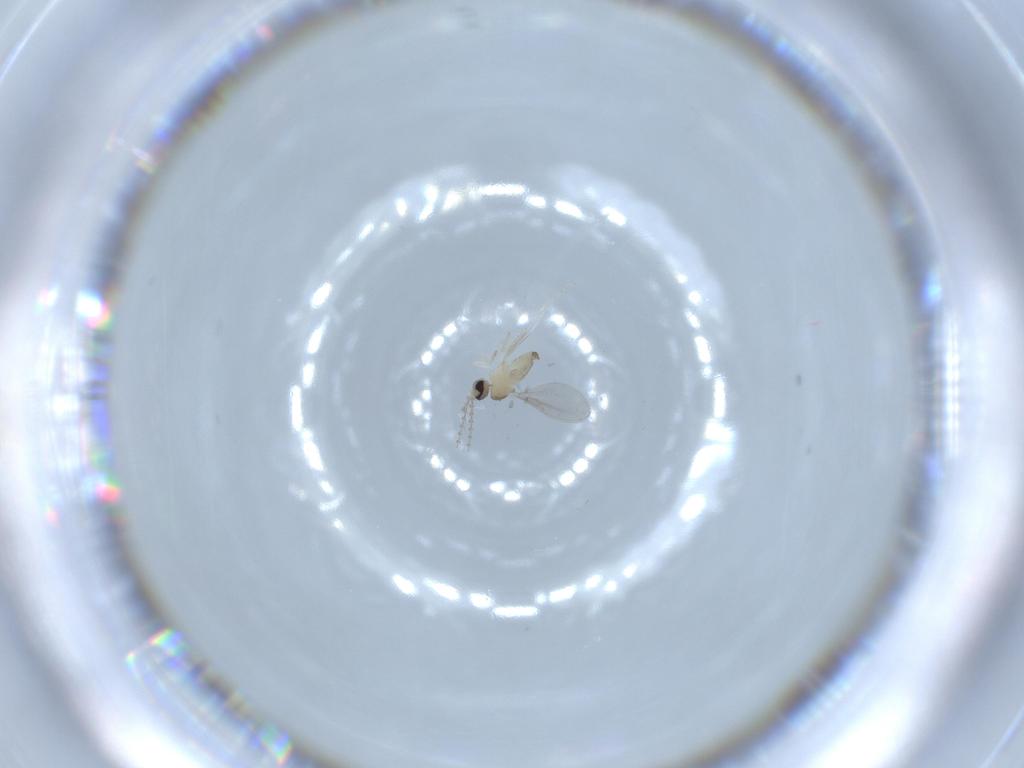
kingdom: Animalia
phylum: Arthropoda
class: Insecta
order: Diptera
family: Cecidomyiidae
